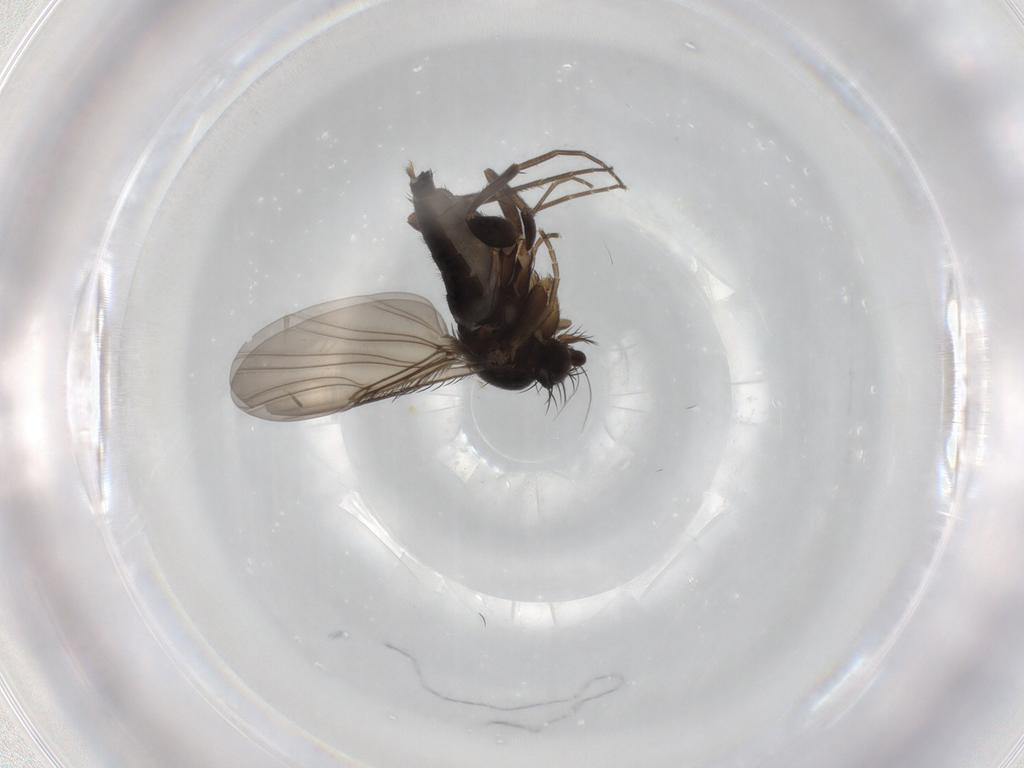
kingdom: Animalia
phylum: Arthropoda
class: Insecta
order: Diptera
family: Phoridae
